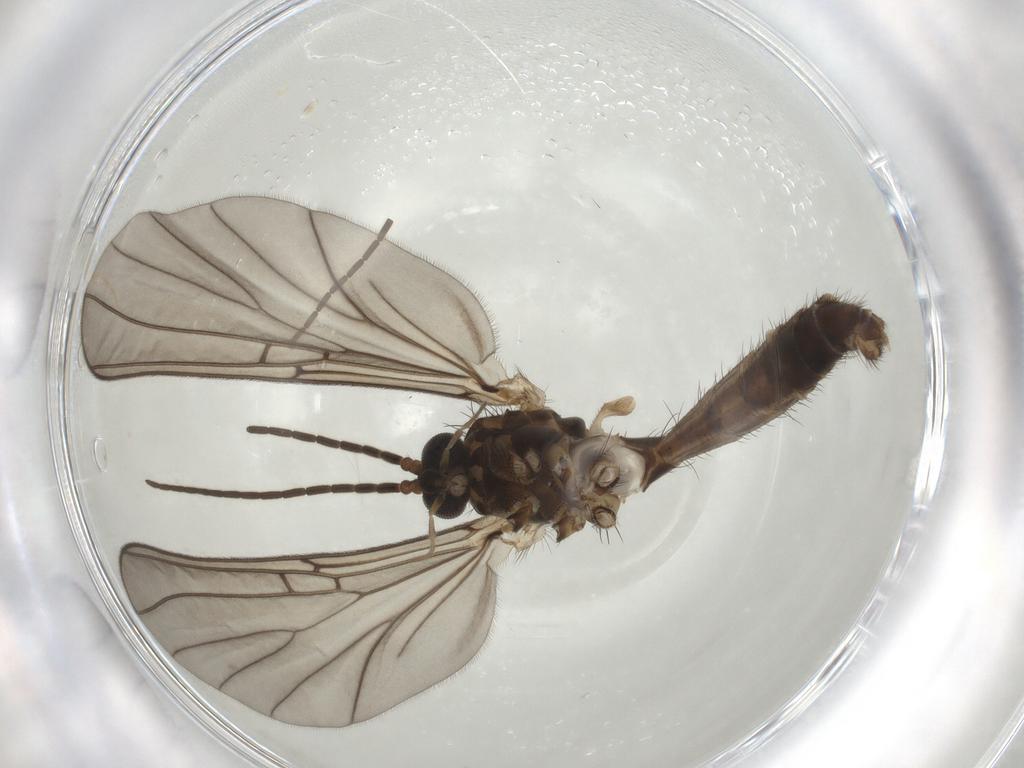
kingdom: Animalia
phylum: Arthropoda
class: Insecta
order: Diptera
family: Mycetophilidae
